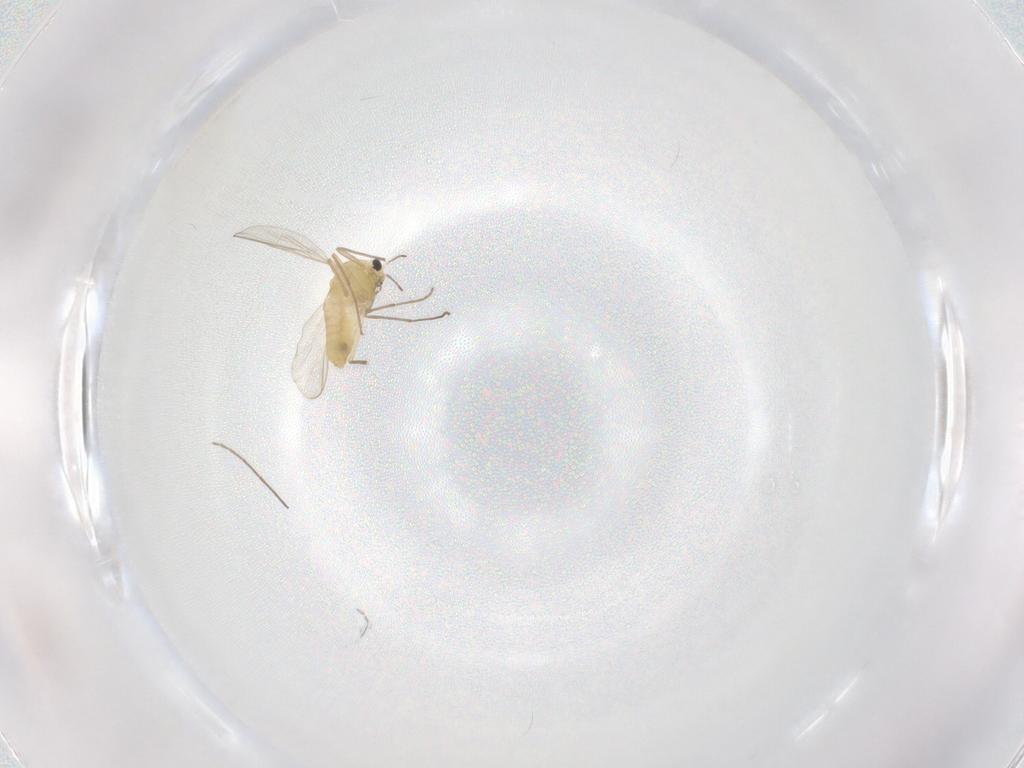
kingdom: Animalia
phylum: Arthropoda
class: Insecta
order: Diptera
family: Chironomidae
